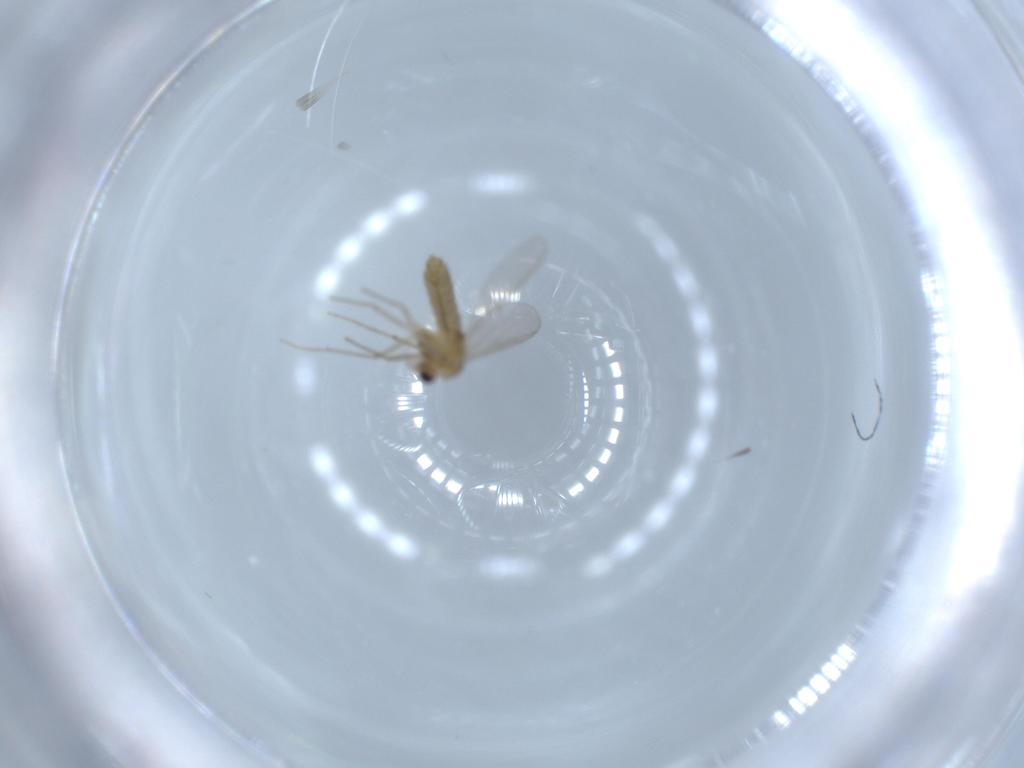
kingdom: Animalia
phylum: Arthropoda
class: Insecta
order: Diptera
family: Chironomidae
